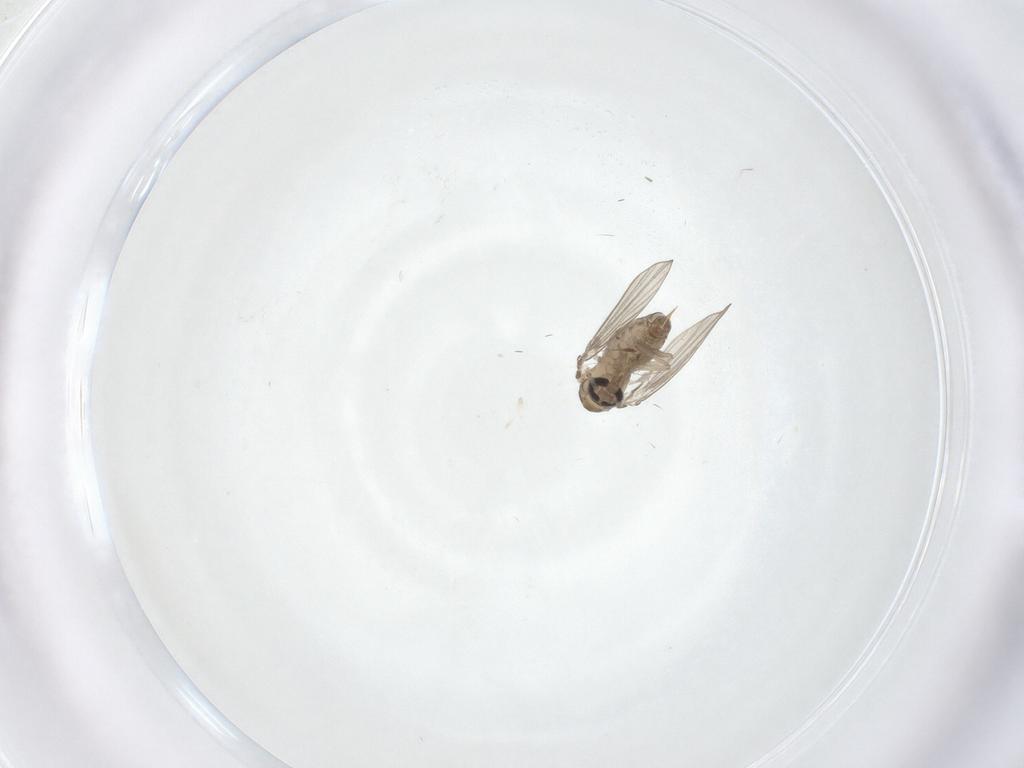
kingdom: Animalia
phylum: Arthropoda
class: Insecta
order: Diptera
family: Psychodidae
